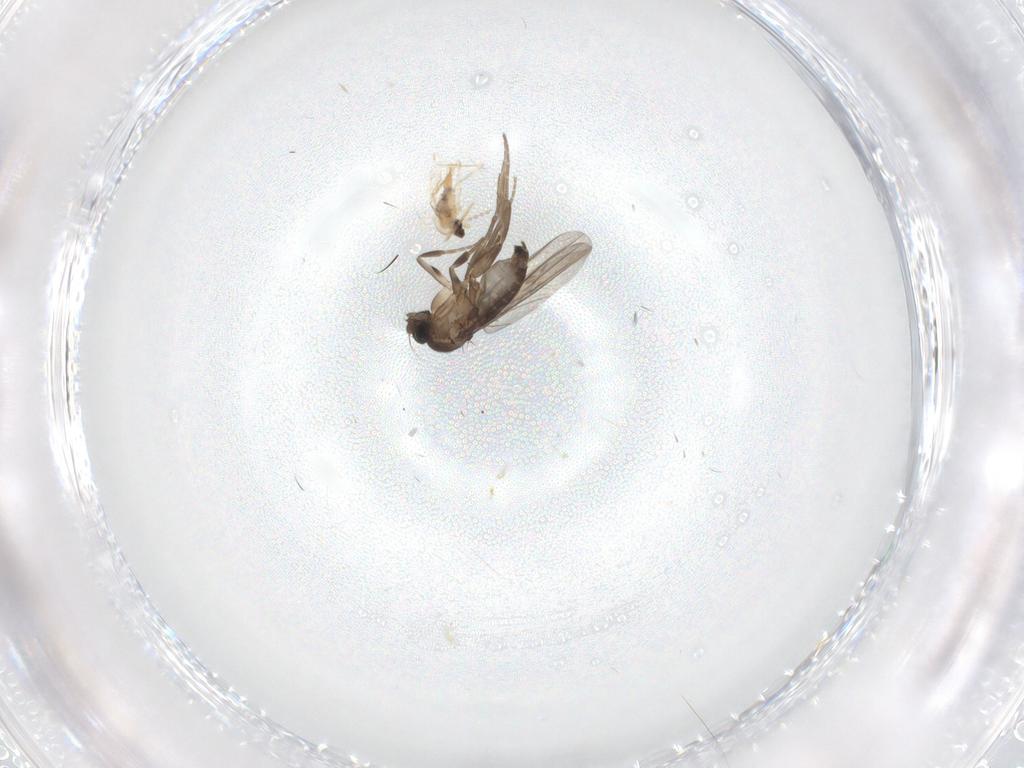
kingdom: Animalia
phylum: Arthropoda
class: Insecta
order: Diptera
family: Phoridae
